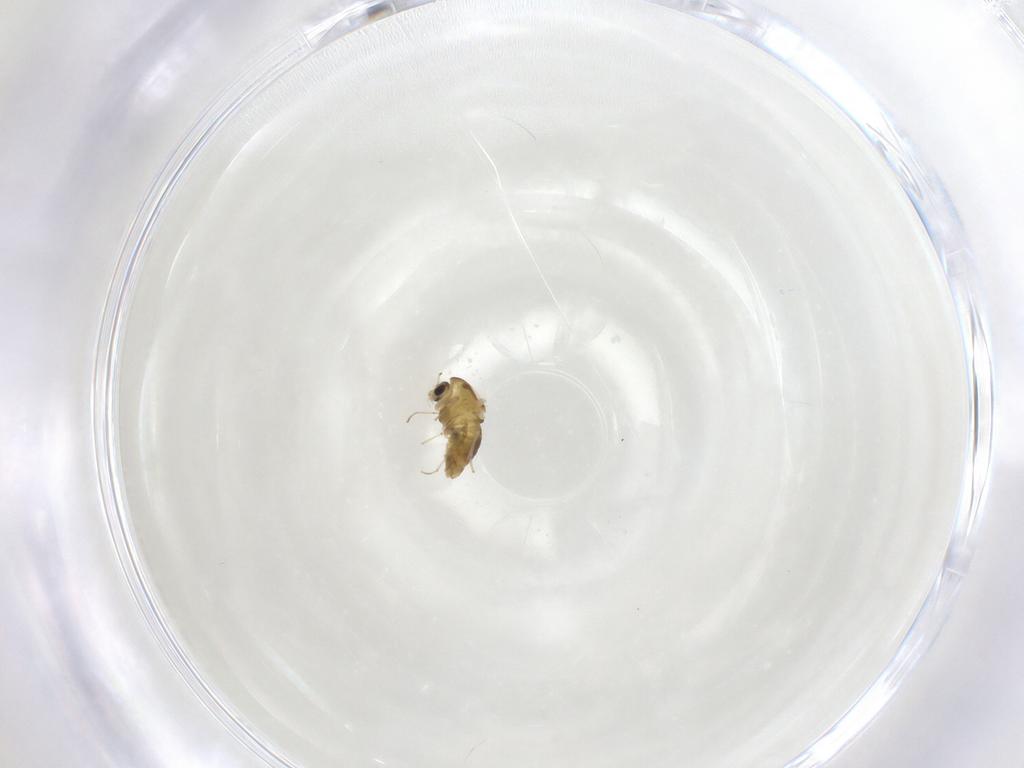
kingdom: Animalia
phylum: Arthropoda
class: Insecta
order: Diptera
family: Chironomidae
